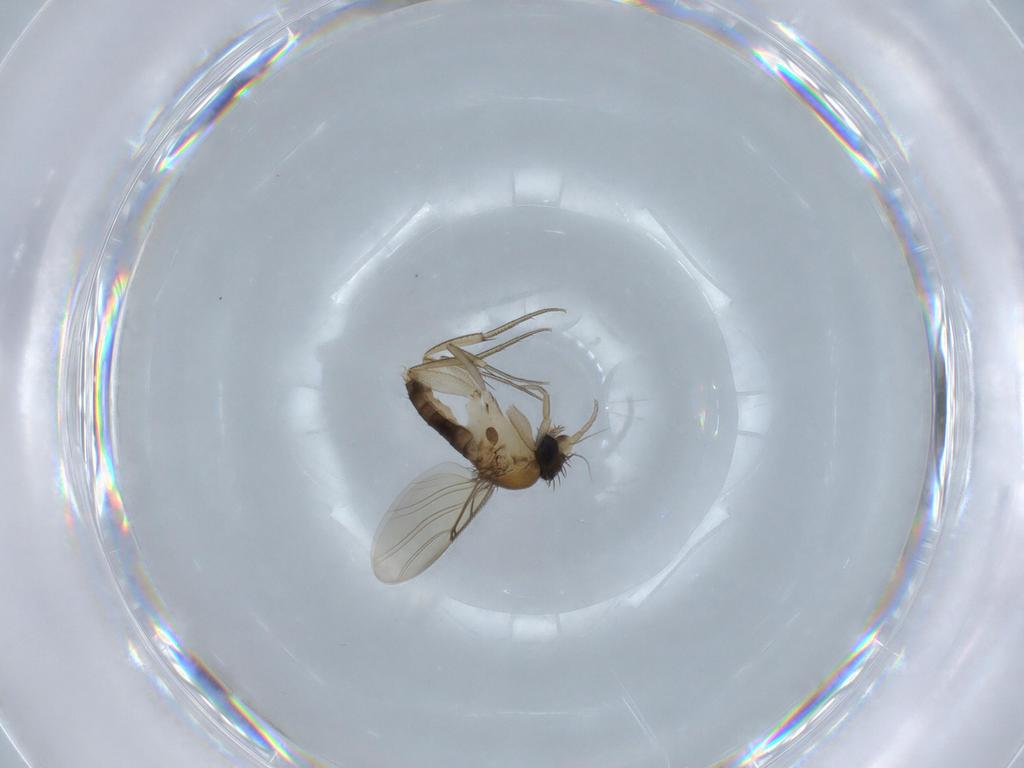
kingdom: Animalia
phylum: Arthropoda
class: Insecta
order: Diptera
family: Phoridae
